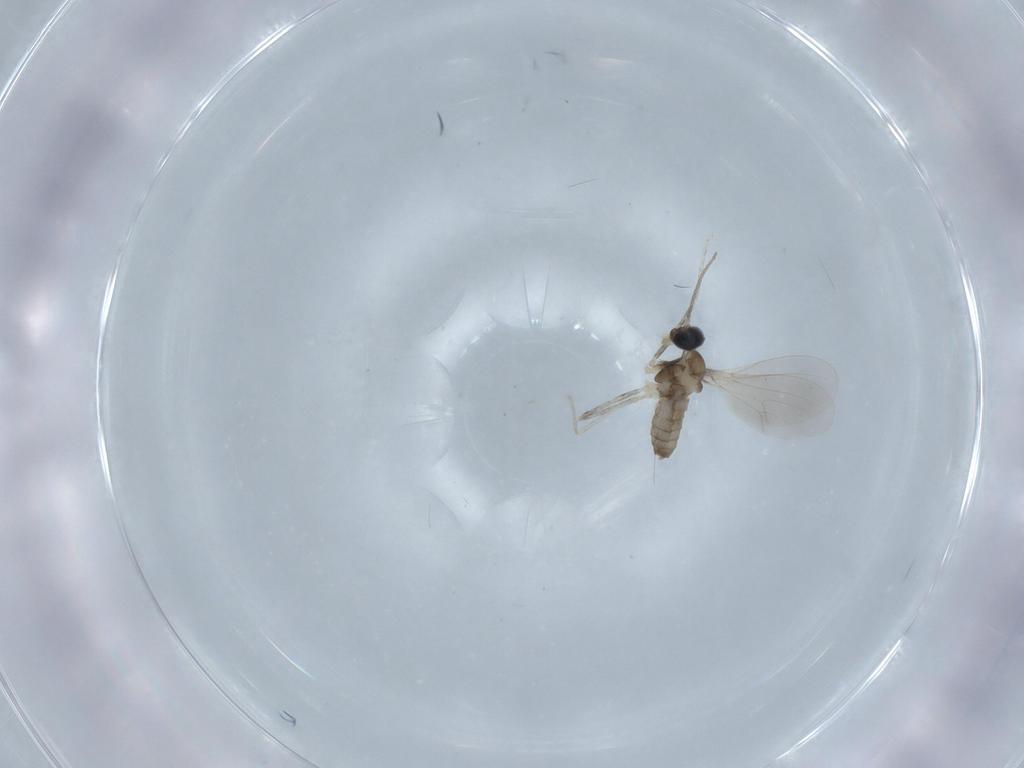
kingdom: Animalia
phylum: Arthropoda
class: Insecta
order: Diptera
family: Cecidomyiidae
